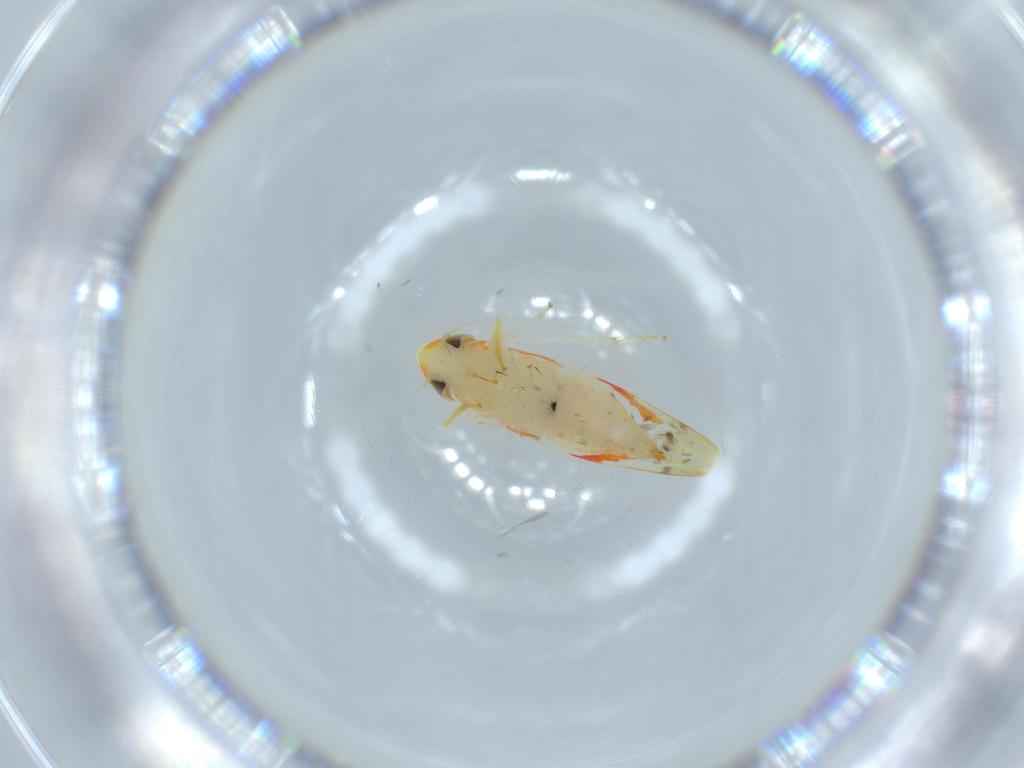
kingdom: Animalia
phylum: Arthropoda
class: Insecta
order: Hemiptera
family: Cicadellidae
